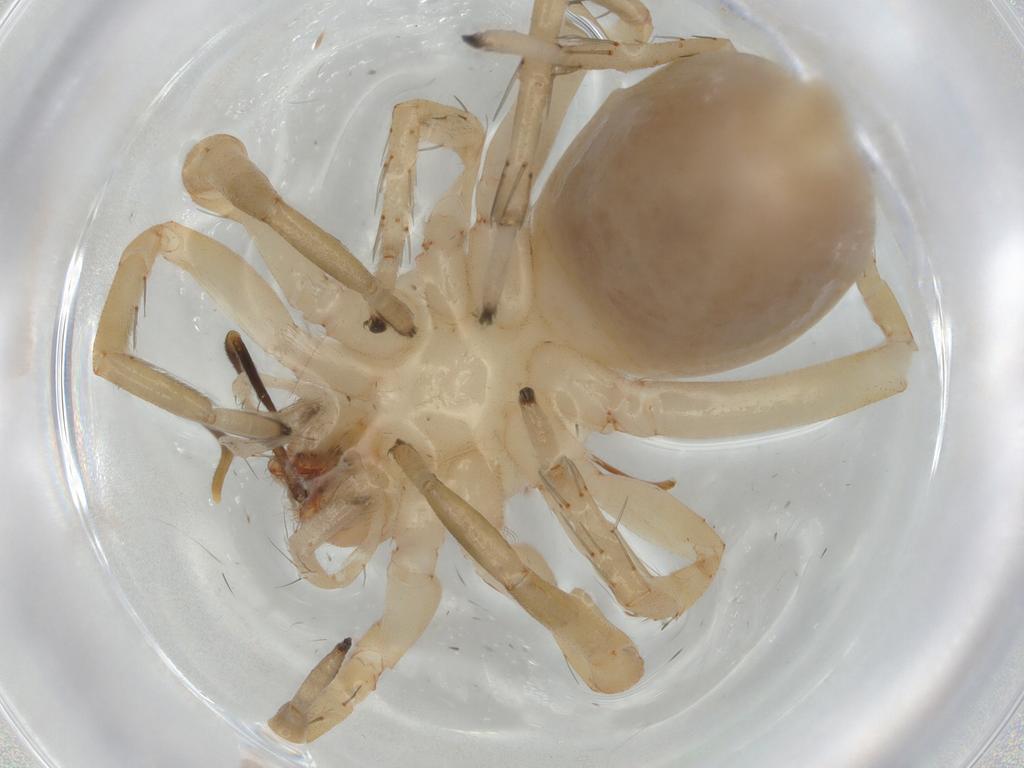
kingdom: Animalia
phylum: Arthropoda
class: Arachnida
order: Araneae
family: Clubionidae
